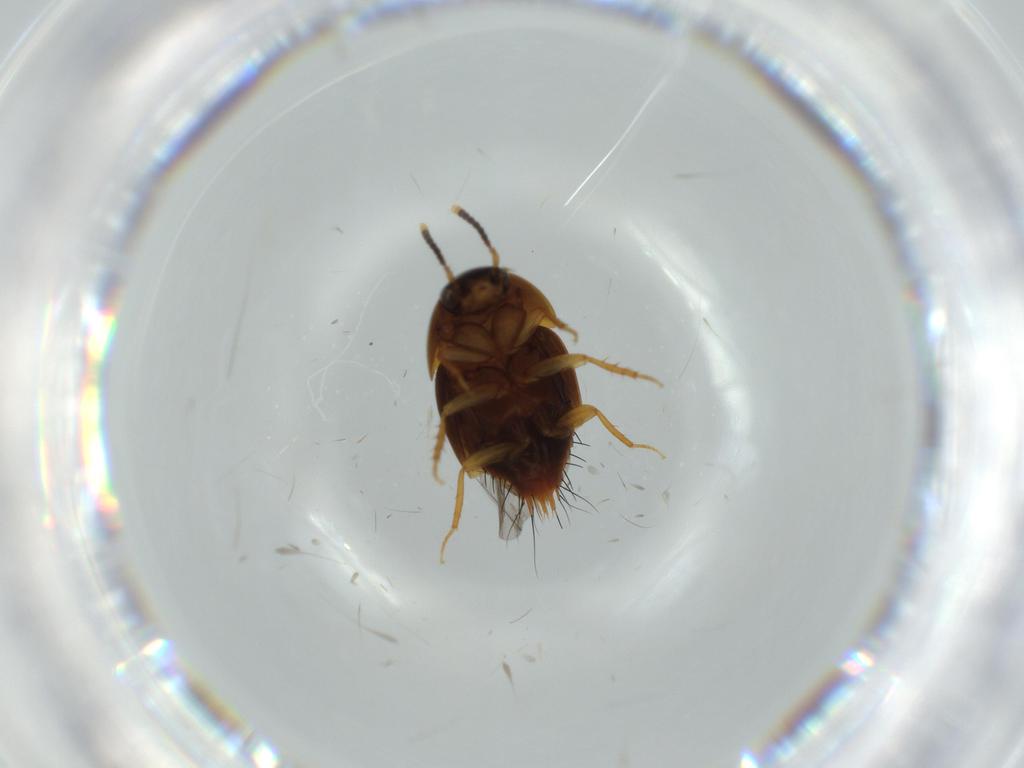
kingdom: Animalia
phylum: Arthropoda
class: Insecta
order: Coleoptera
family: Staphylinidae
